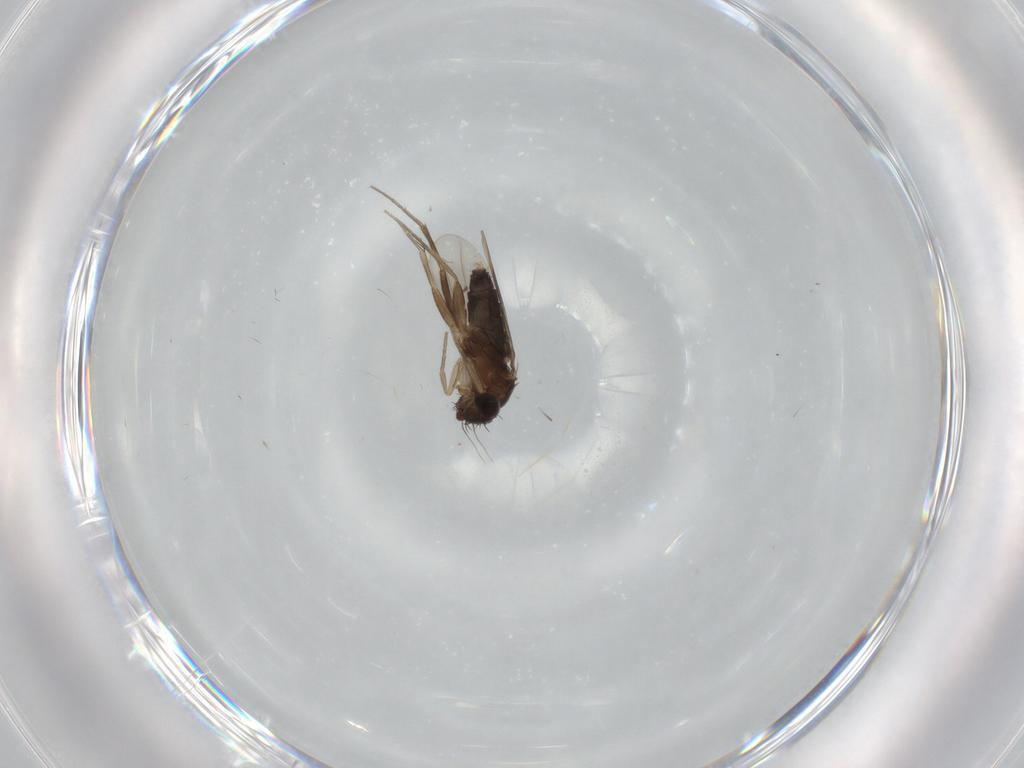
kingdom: Animalia
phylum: Arthropoda
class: Insecta
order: Diptera
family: Phoridae
